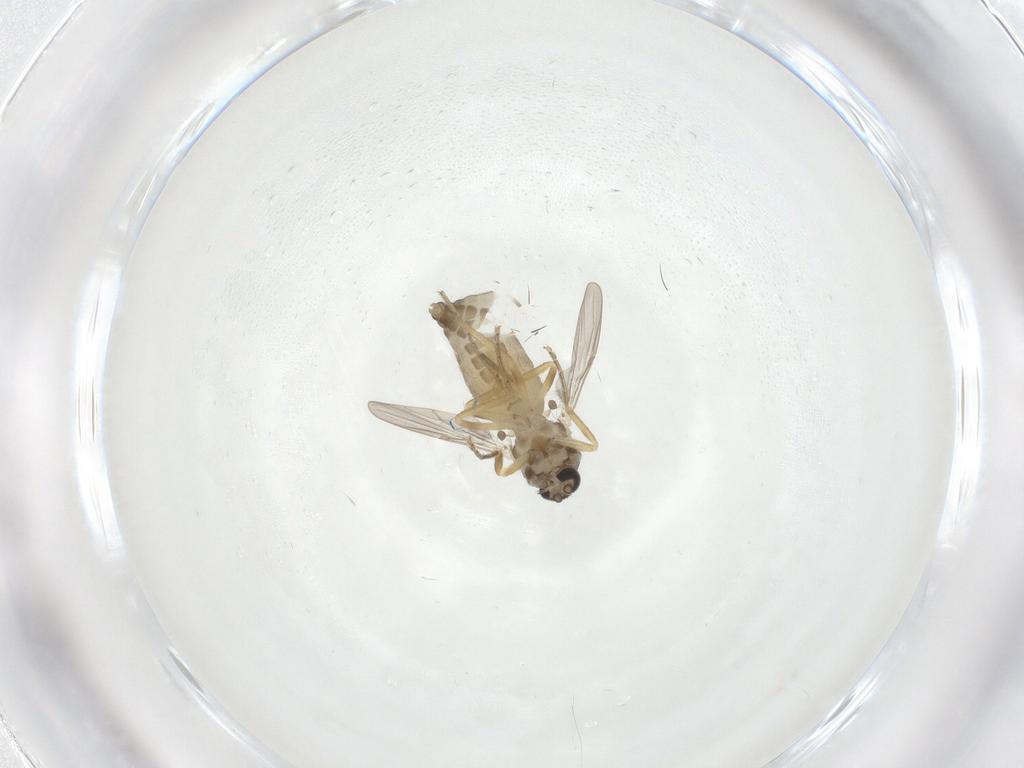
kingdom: Animalia
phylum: Arthropoda
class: Insecta
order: Diptera
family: Ceratopogonidae
